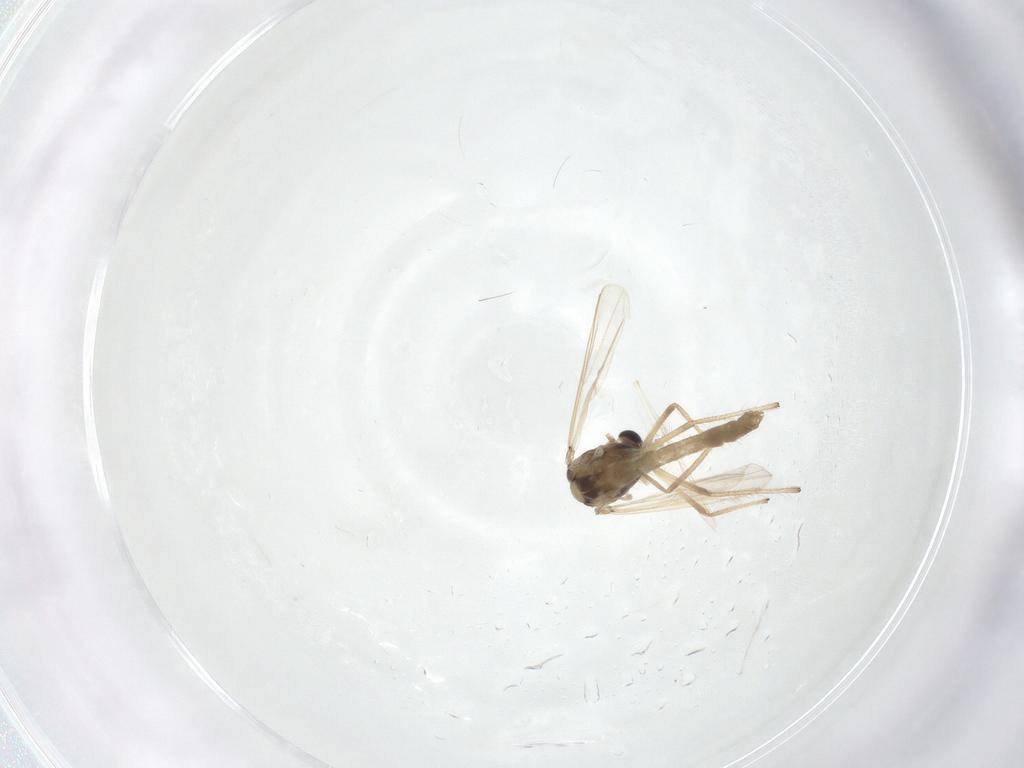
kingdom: Animalia
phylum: Arthropoda
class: Insecta
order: Diptera
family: Chironomidae
